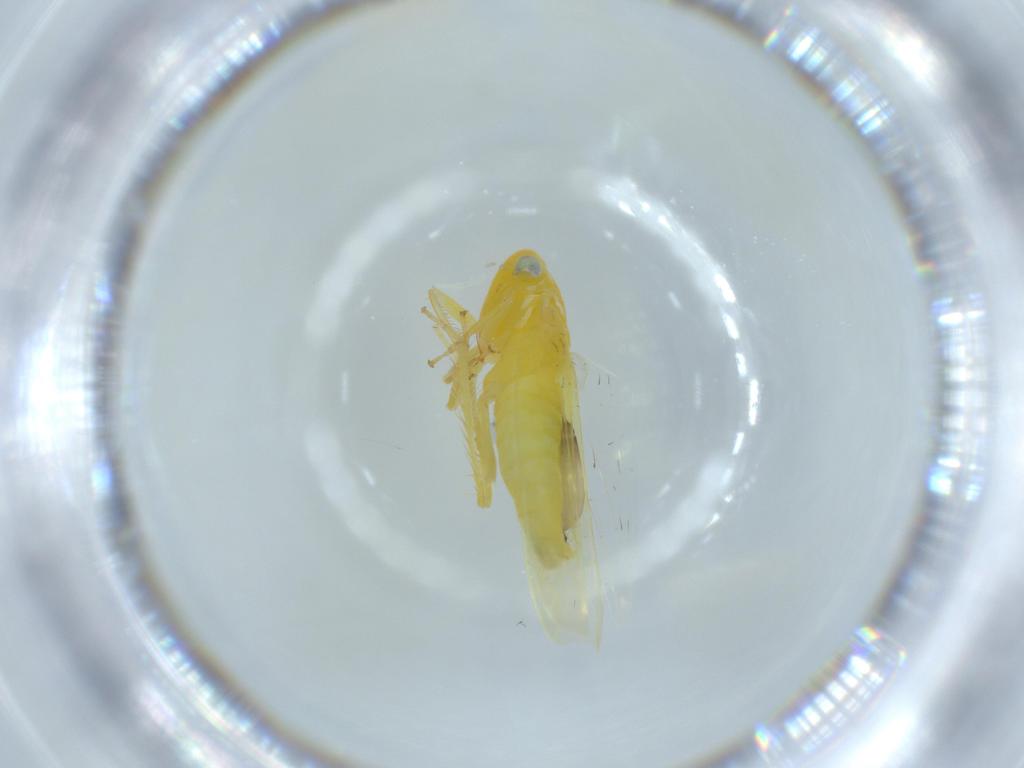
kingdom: Animalia
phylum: Arthropoda
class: Insecta
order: Hemiptera
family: Cicadellidae
